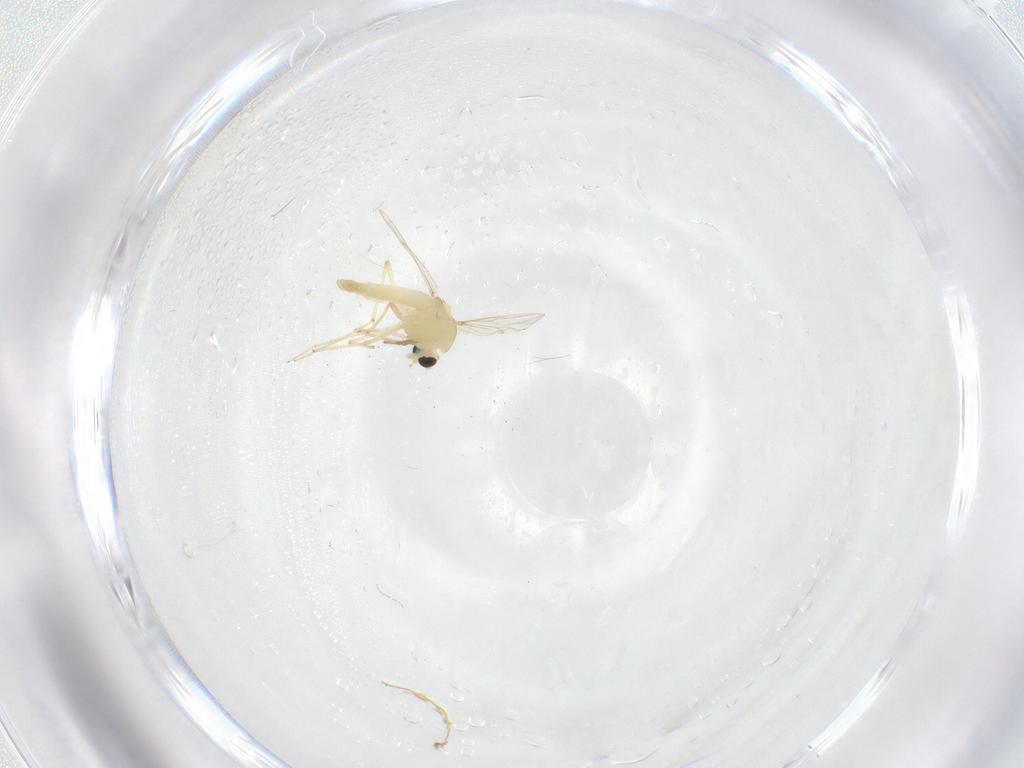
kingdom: Animalia
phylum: Arthropoda
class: Insecta
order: Diptera
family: Chironomidae
